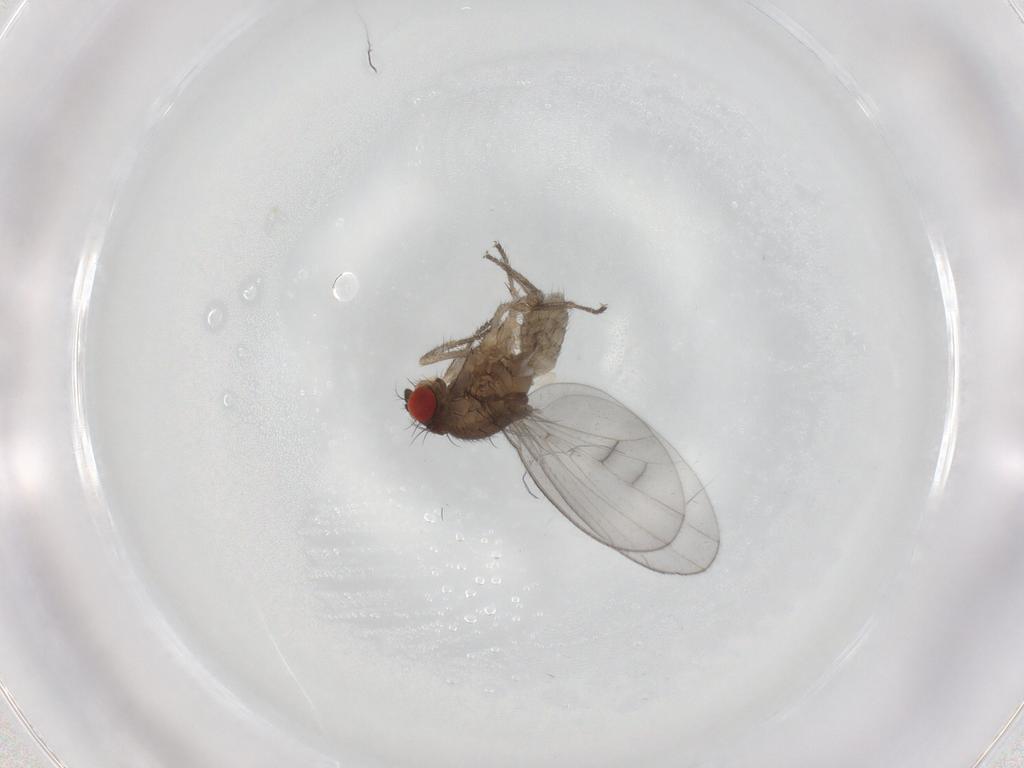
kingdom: Animalia
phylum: Arthropoda
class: Insecta
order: Diptera
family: Drosophilidae
